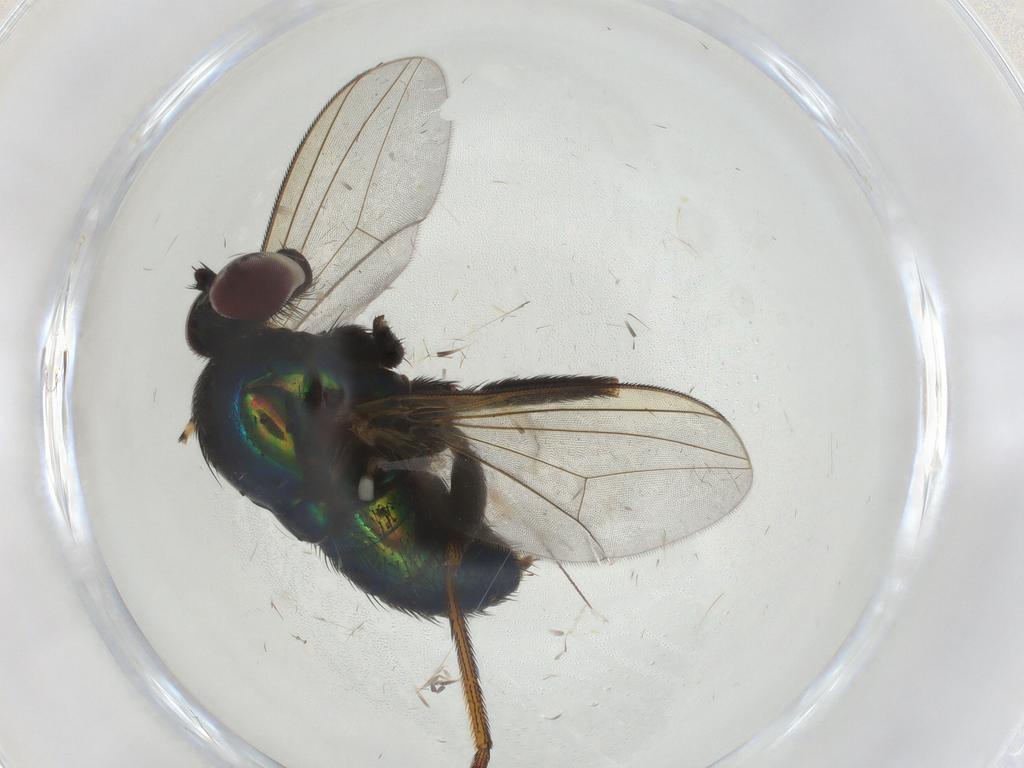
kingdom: Animalia
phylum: Arthropoda
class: Insecta
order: Diptera
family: Dolichopodidae
